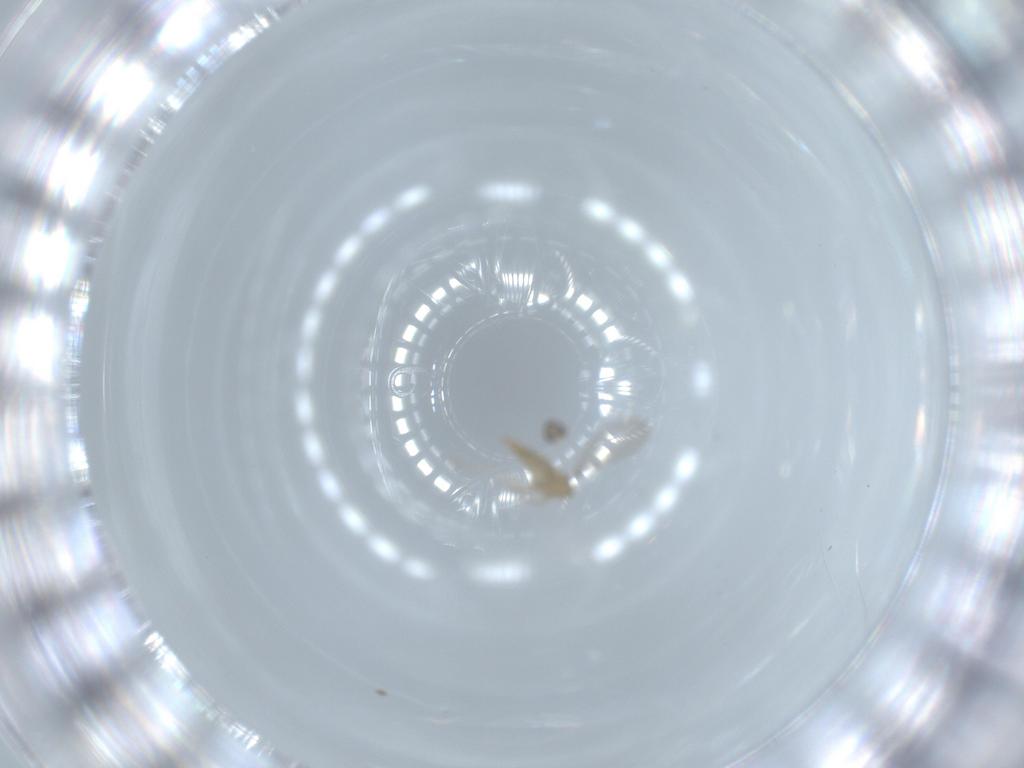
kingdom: Animalia
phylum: Arthropoda
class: Insecta
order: Diptera
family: Cecidomyiidae
